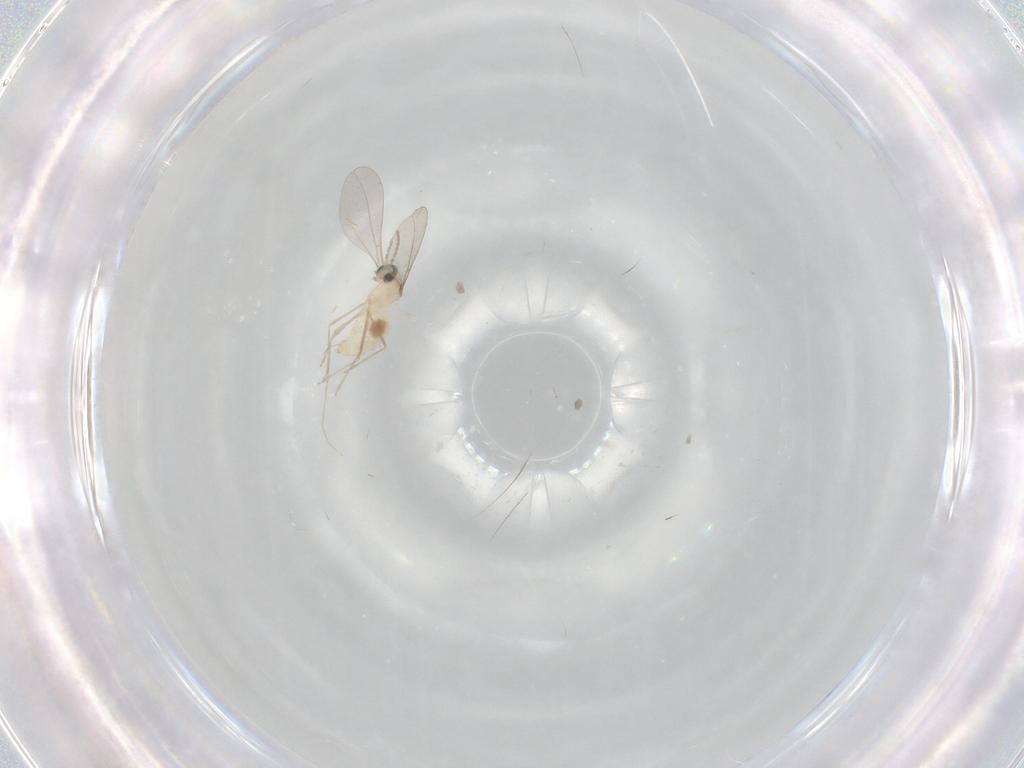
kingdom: Animalia
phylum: Arthropoda
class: Insecta
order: Diptera
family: Cecidomyiidae
